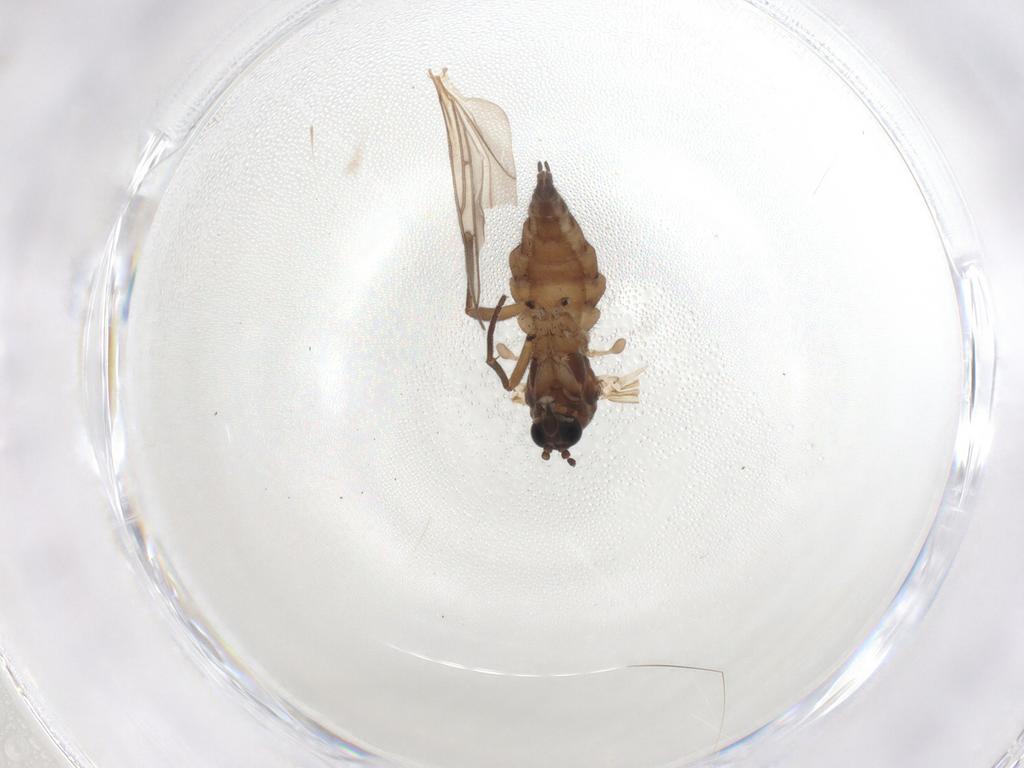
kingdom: Animalia
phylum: Arthropoda
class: Insecta
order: Diptera
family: Sciaridae
